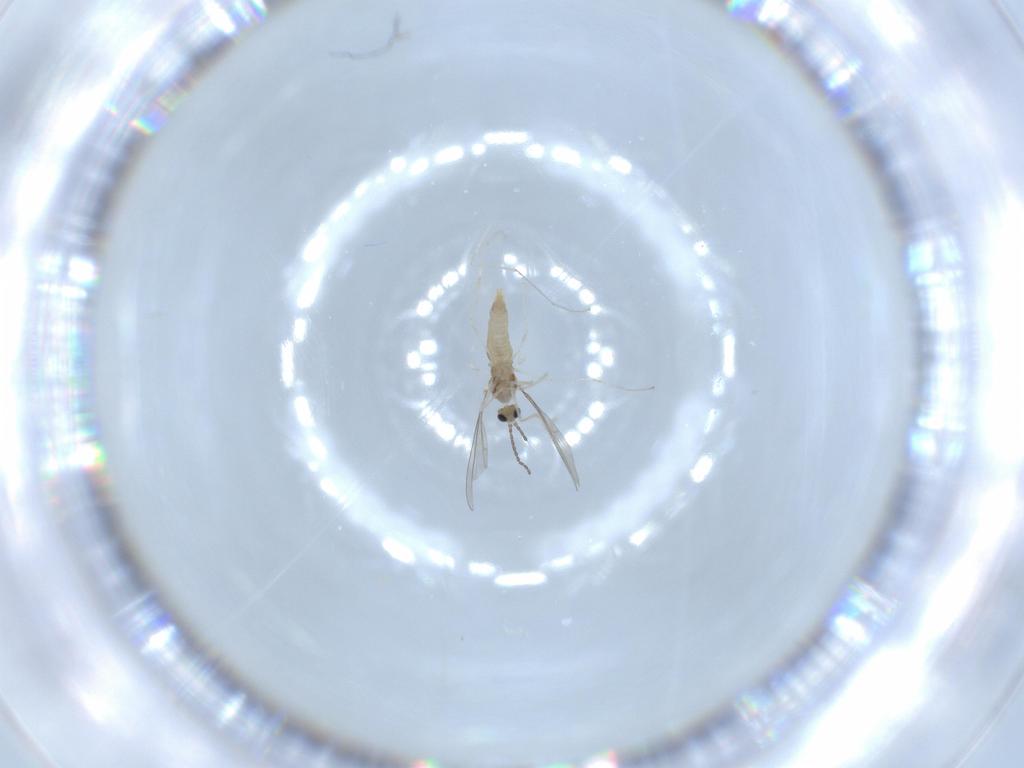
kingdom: Animalia
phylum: Arthropoda
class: Insecta
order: Diptera
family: Cecidomyiidae
